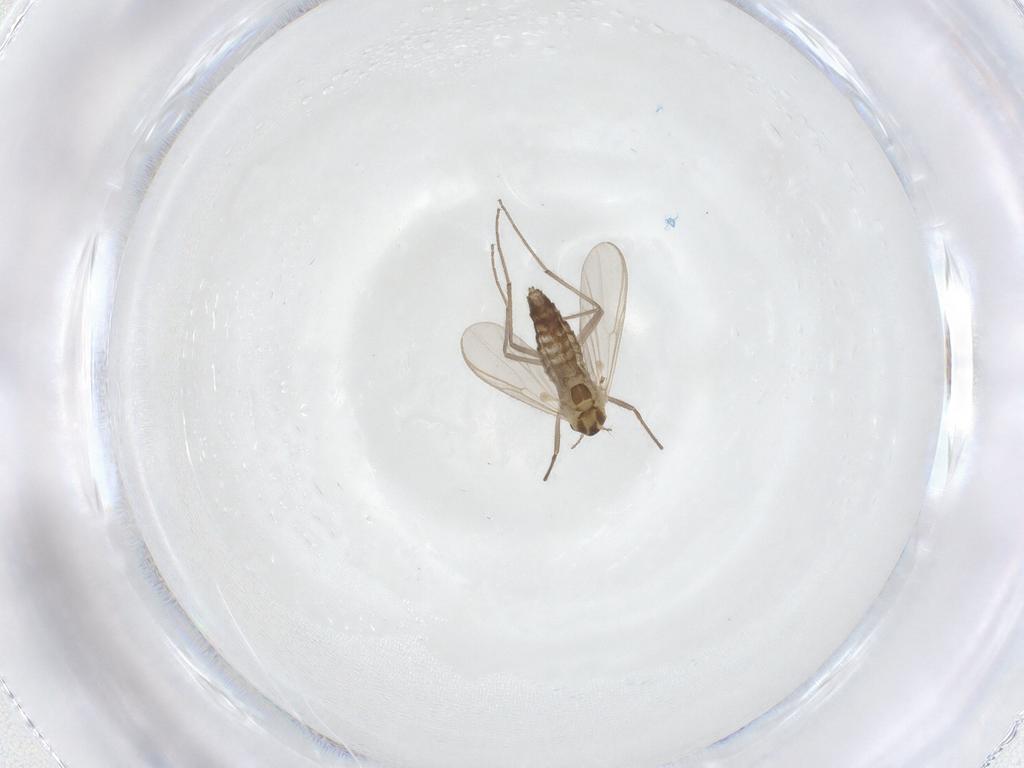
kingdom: Animalia
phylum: Arthropoda
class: Insecta
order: Diptera
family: Chironomidae
